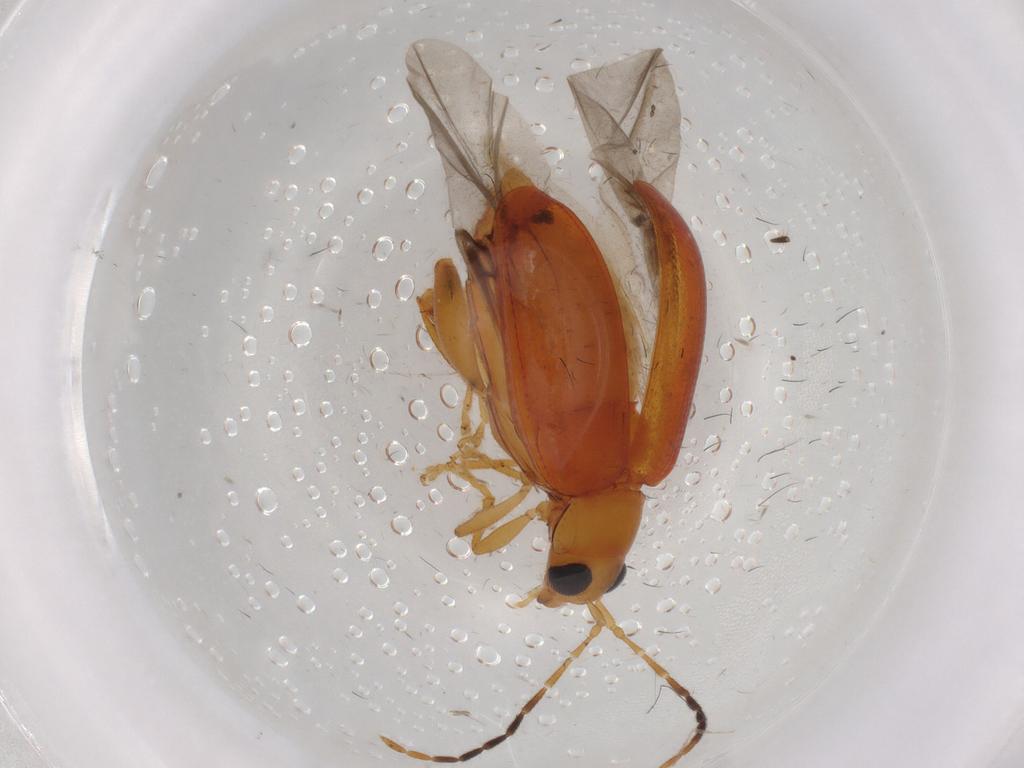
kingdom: Animalia
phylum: Arthropoda
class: Insecta
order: Coleoptera
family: Chrysomelidae
